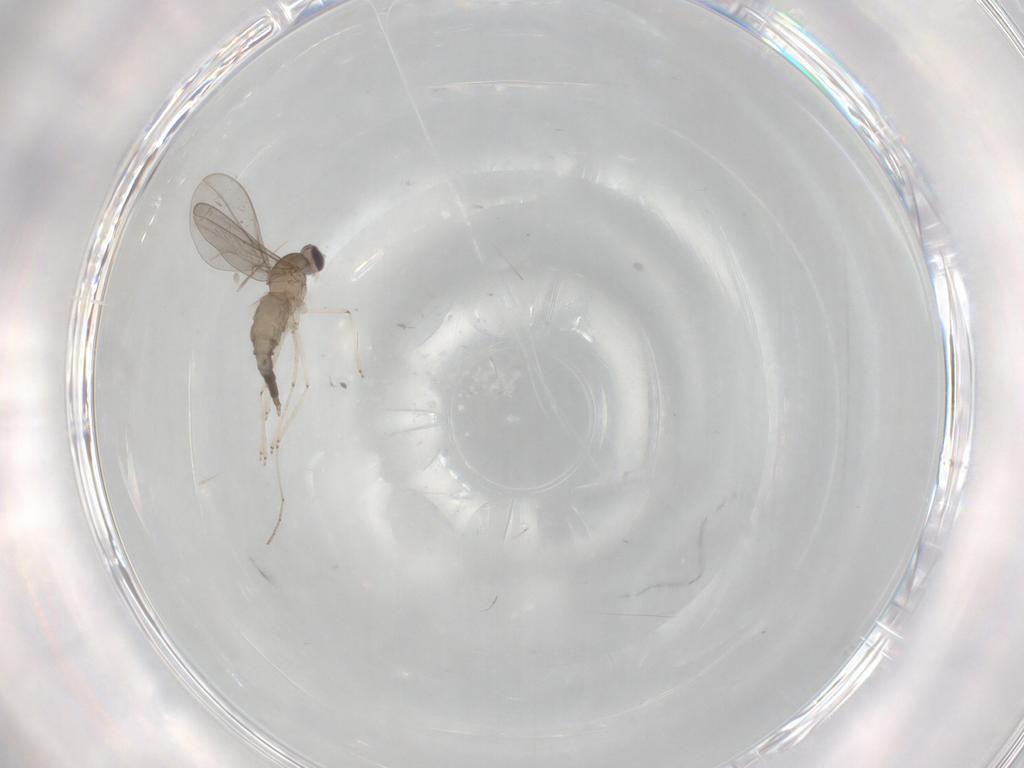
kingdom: Animalia
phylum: Arthropoda
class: Insecta
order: Diptera
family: Cecidomyiidae
